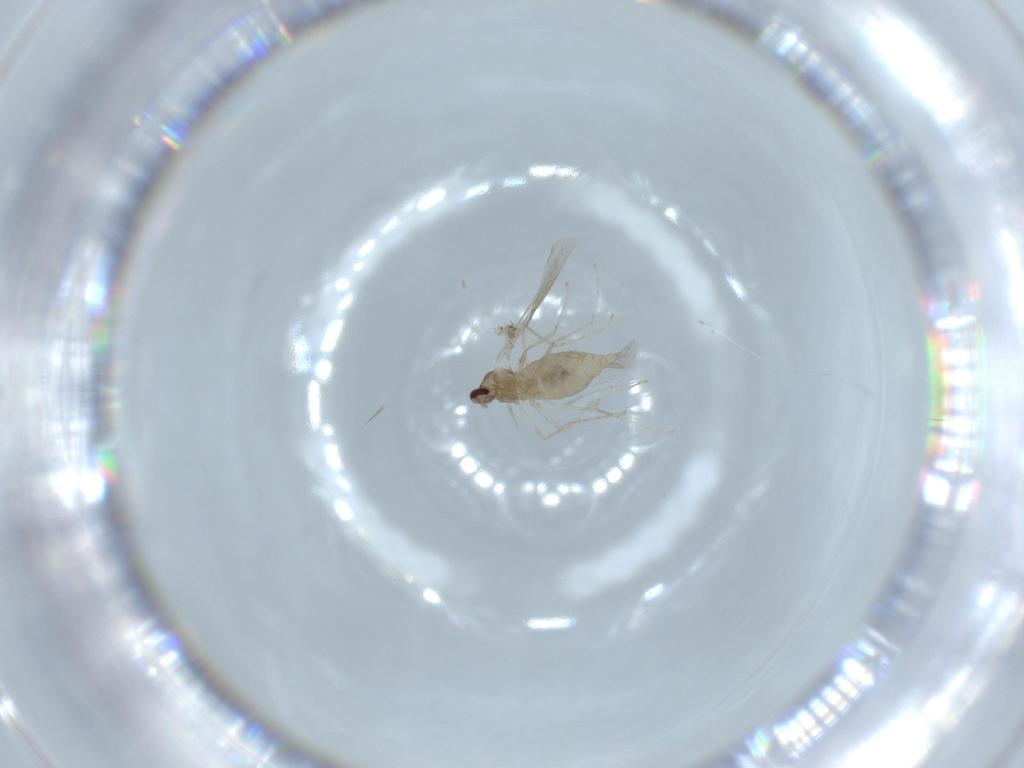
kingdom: Animalia
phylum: Arthropoda
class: Insecta
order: Diptera
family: Cecidomyiidae
